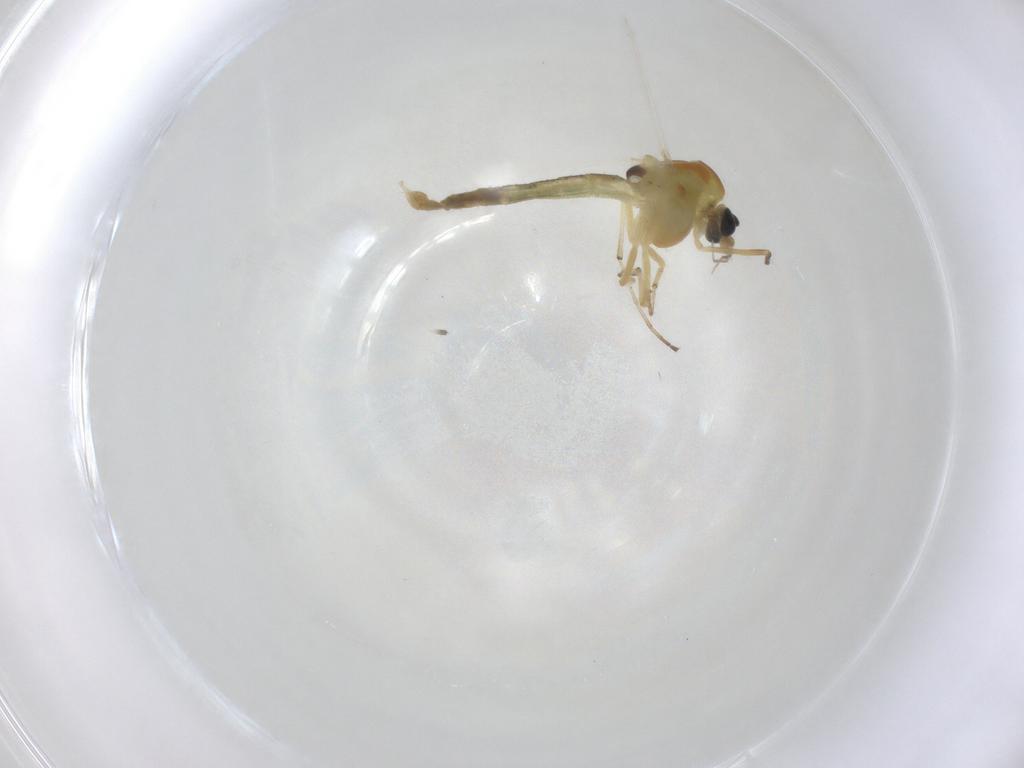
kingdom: Animalia
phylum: Arthropoda
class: Insecta
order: Diptera
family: Chironomidae
